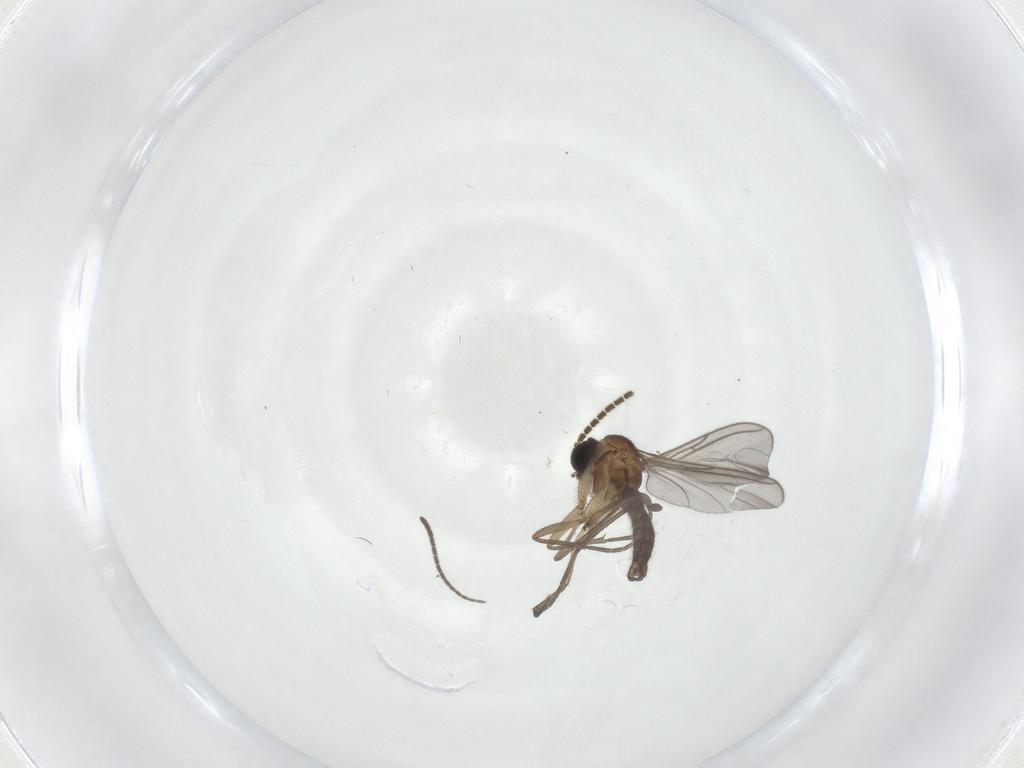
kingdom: Animalia
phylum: Arthropoda
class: Insecta
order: Diptera
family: Sciaridae
